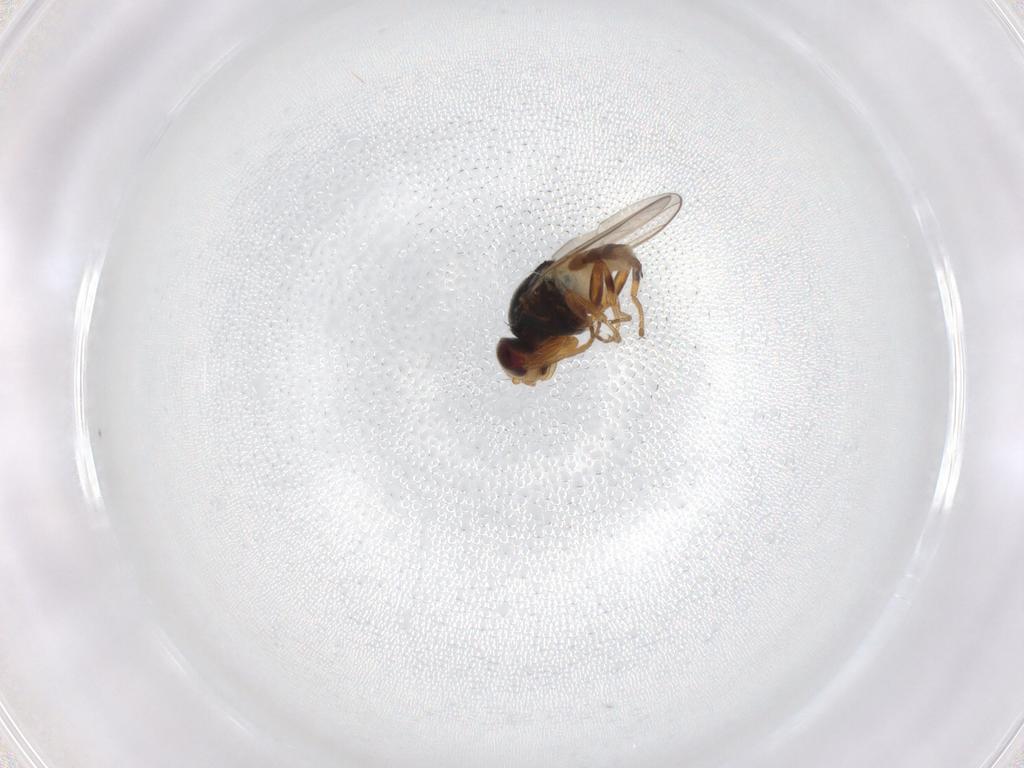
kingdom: Animalia
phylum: Arthropoda
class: Insecta
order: Diptera
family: Chloropidae
